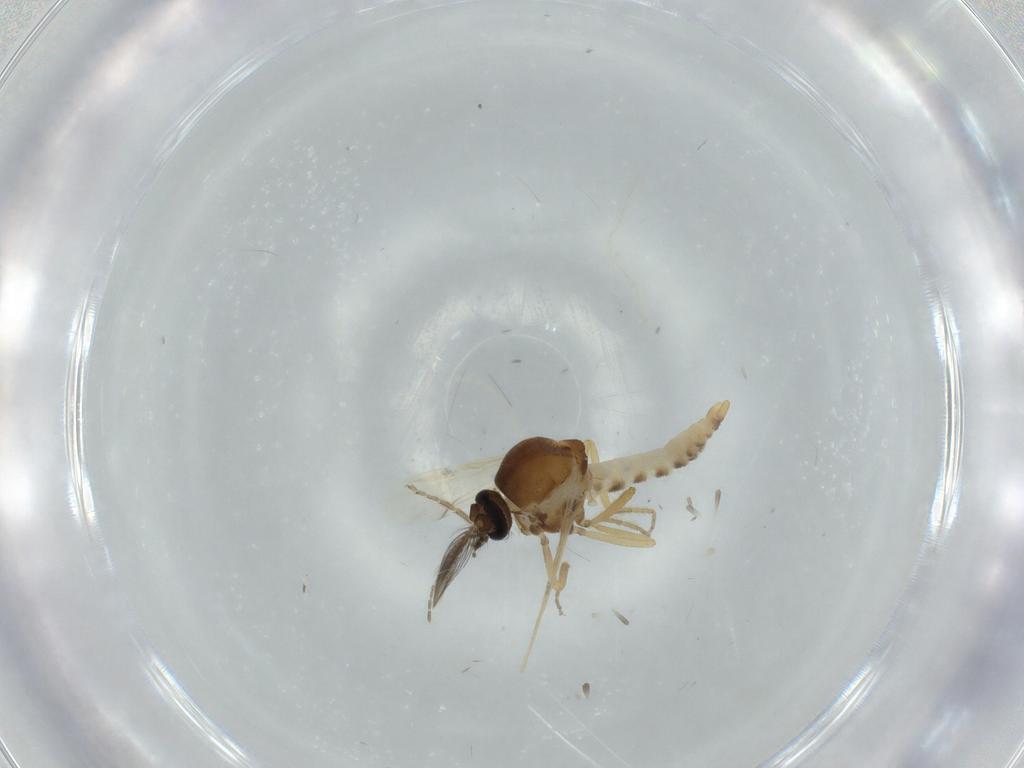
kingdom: Animalia
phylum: Arthropoda
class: Insecta
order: Diptera
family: Ceratopogonidae
